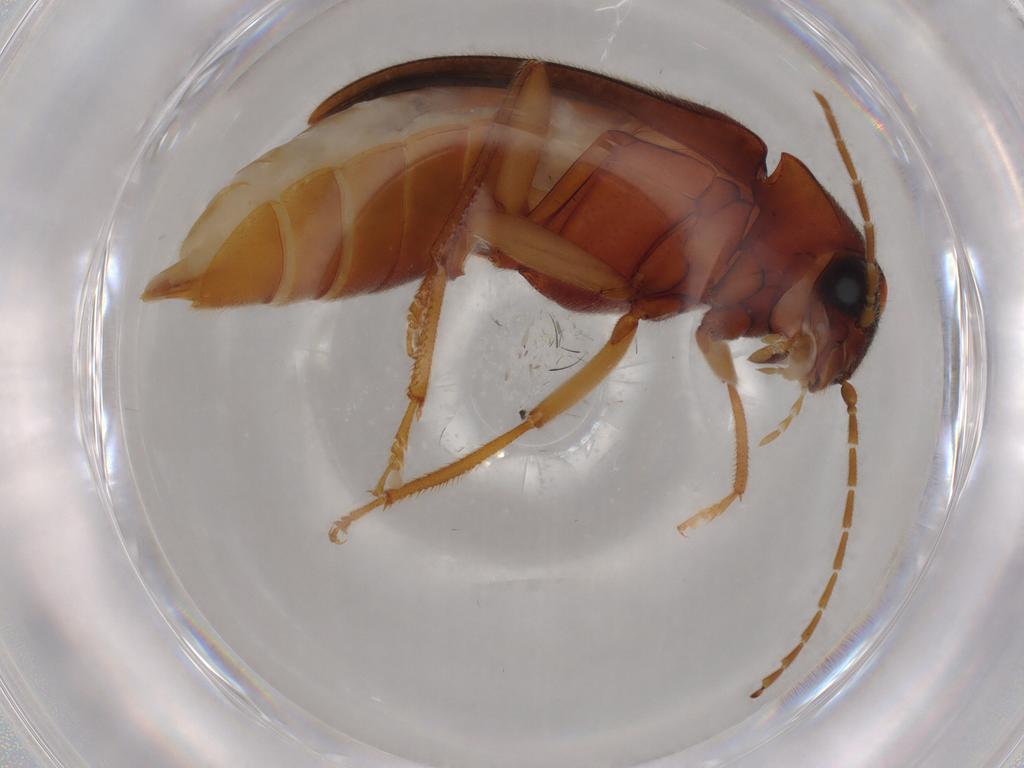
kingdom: Animalia
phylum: Arthropoda
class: Insecta
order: Coleoptera
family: Ptilodactylidae
